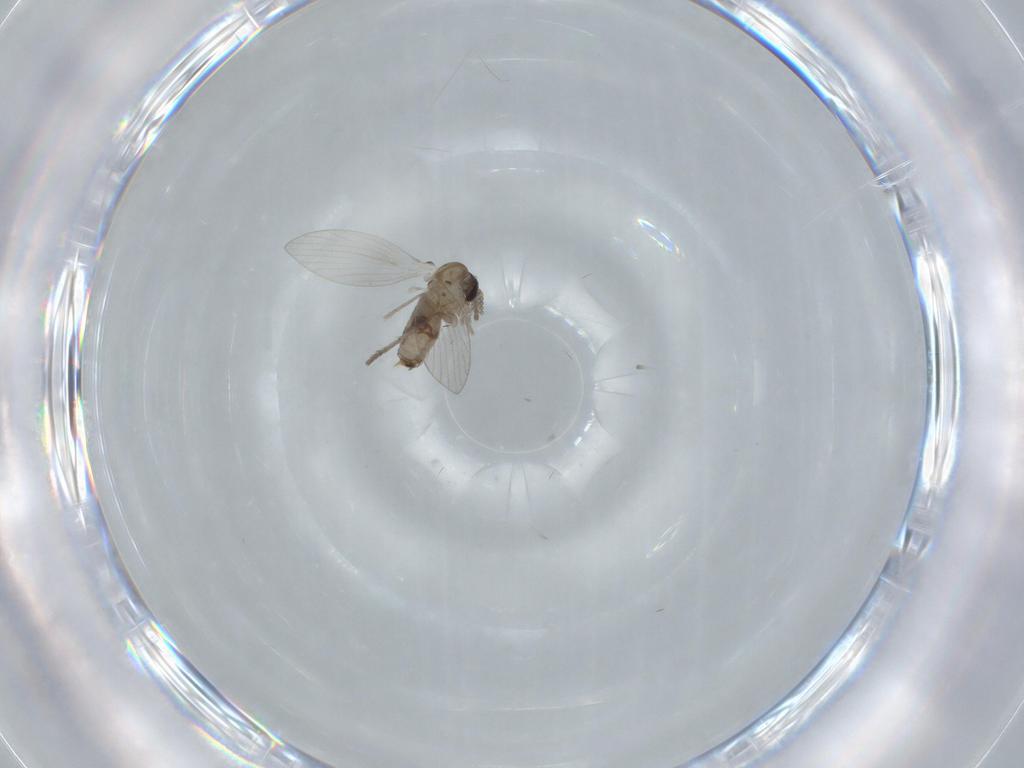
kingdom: Animalia
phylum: Arthropoda
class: Insecta
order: Diptera
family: Psychodidae
